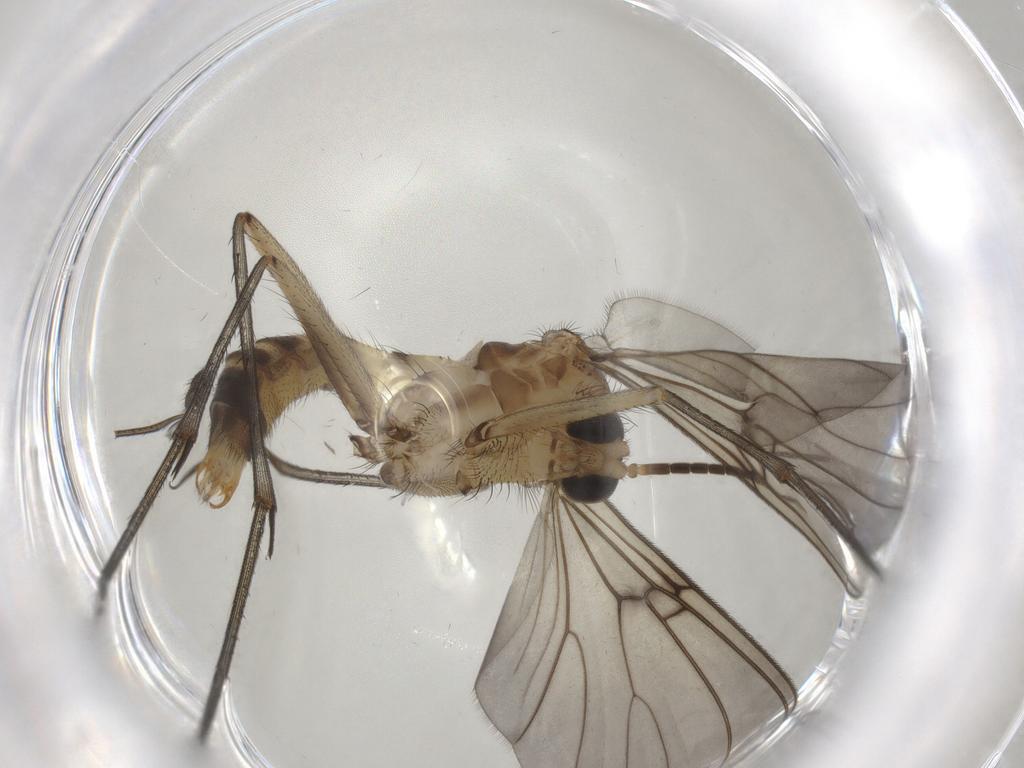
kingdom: Animalia
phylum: Arthropoda
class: Insecta
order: Diptera
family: Mycetophilidae
